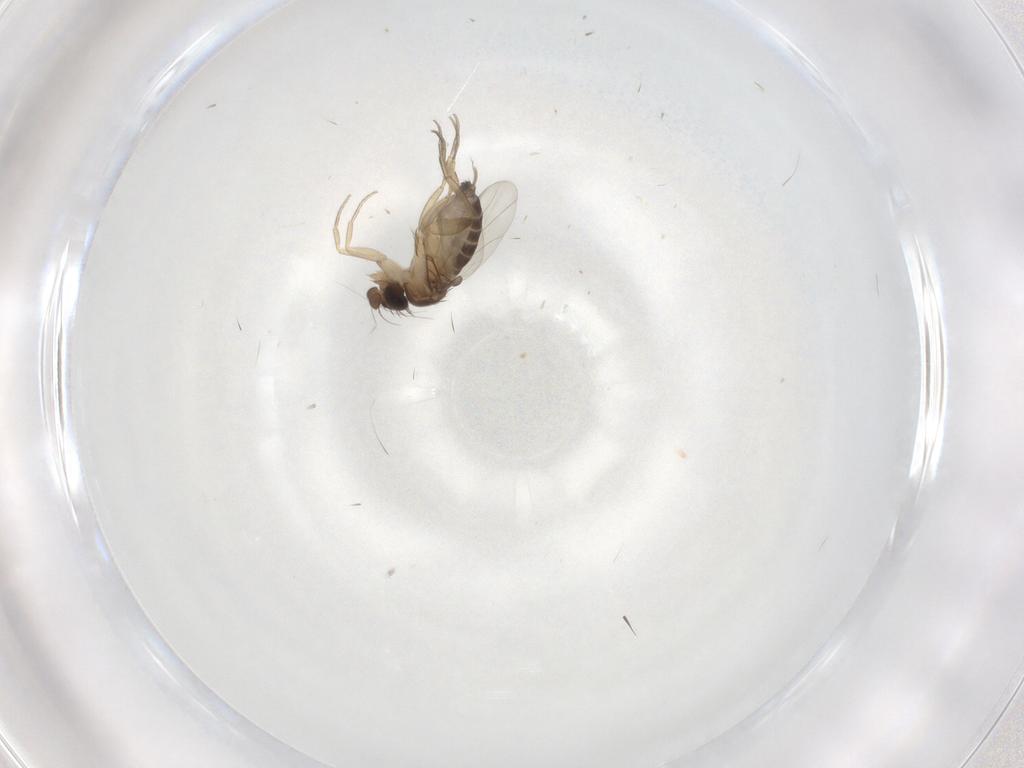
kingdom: Animalia
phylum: Arthropoda
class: Insecta
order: Diptera
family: Phoridae
